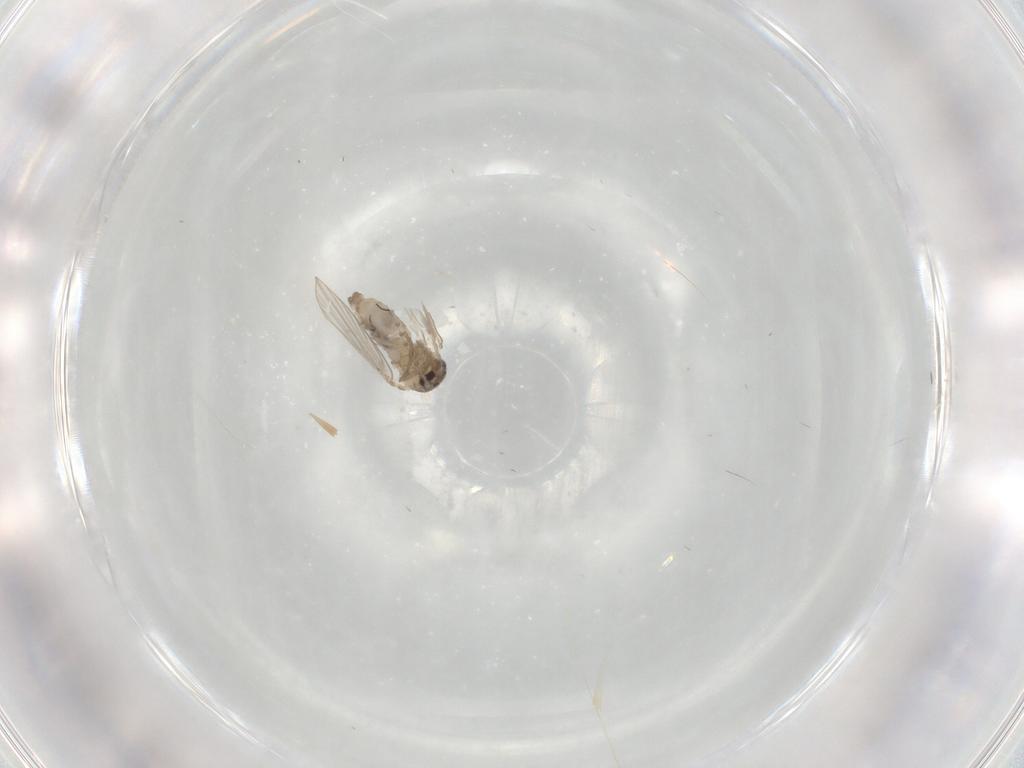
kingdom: Animalia
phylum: Arthropoda
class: Insecta
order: Diptera
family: Psychodidae
